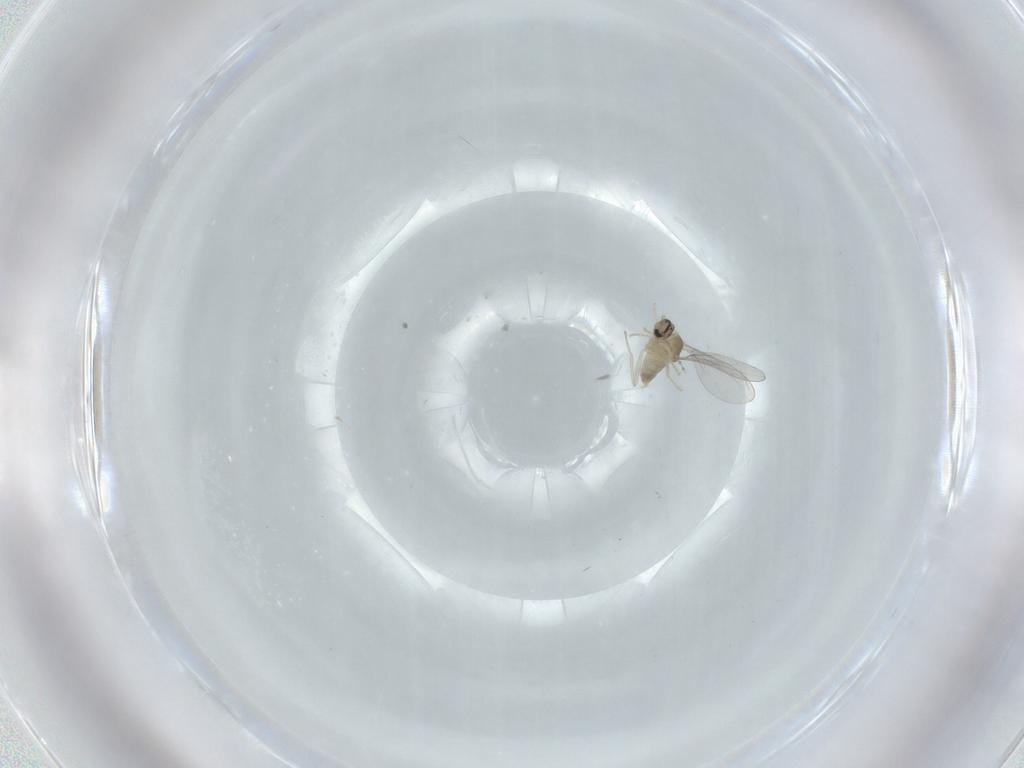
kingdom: Animalia
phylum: Arthropoda
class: Insecta
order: Diptera
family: Cecidomyiidae
